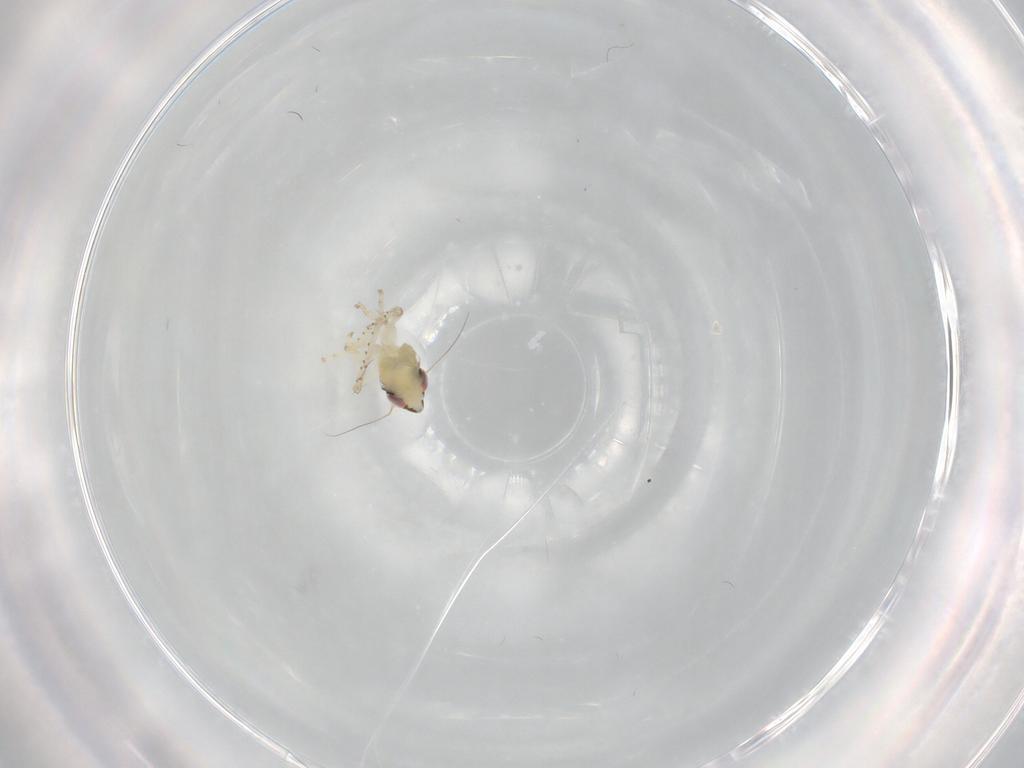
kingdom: Animalia
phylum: Arthropoda
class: Insecta
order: Hemiptera
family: Cicadellidae
